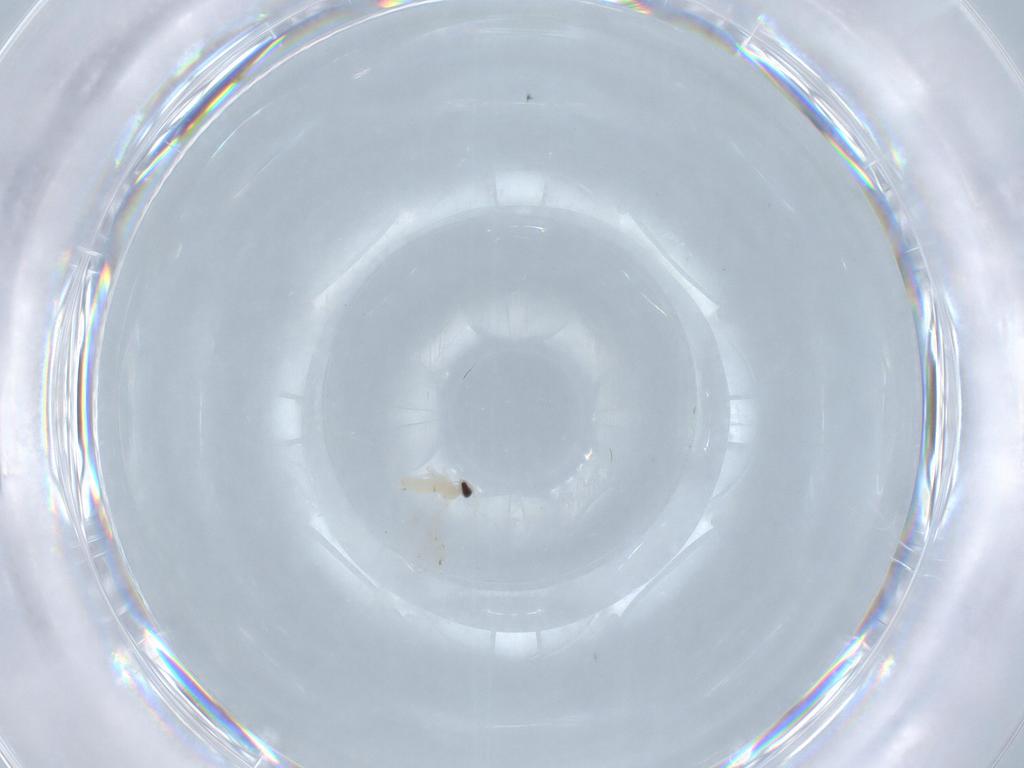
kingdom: Animalia
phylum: Arthropoda
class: Insecta
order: Diptera
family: Cecidomyiidae
